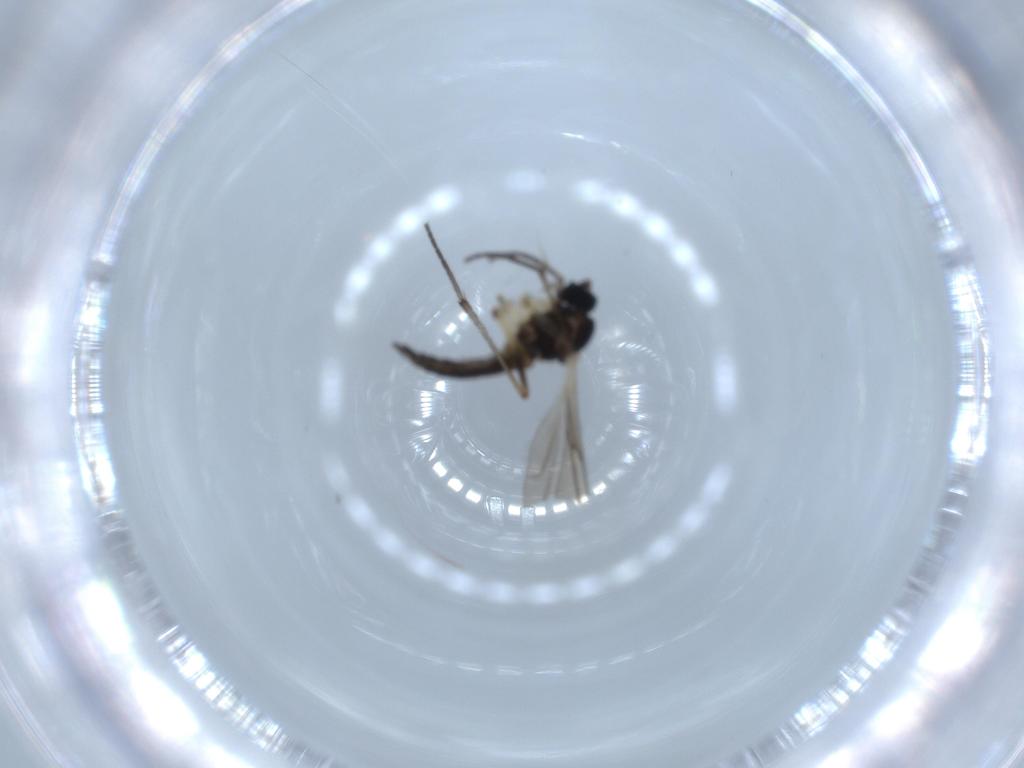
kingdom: Animalia
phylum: Arthropoda
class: Insecta
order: Diptera
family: Sciaridae
